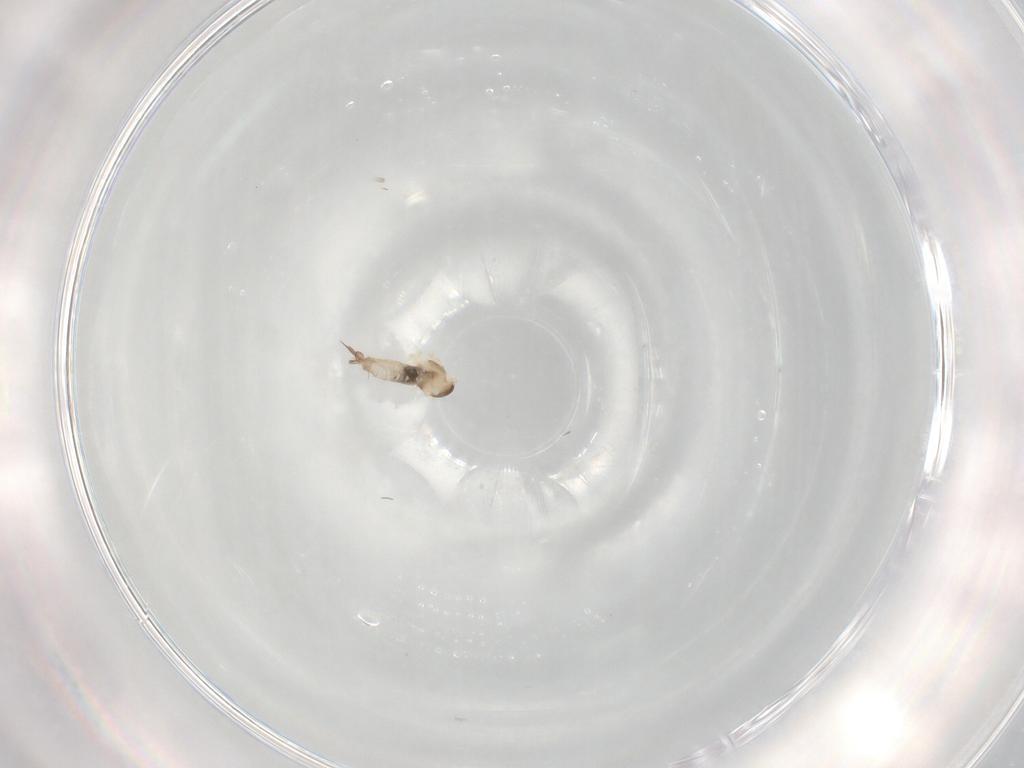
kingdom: Animalia
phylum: Arthropoda
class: Insecta
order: Diptera
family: Cecidomyiidae
